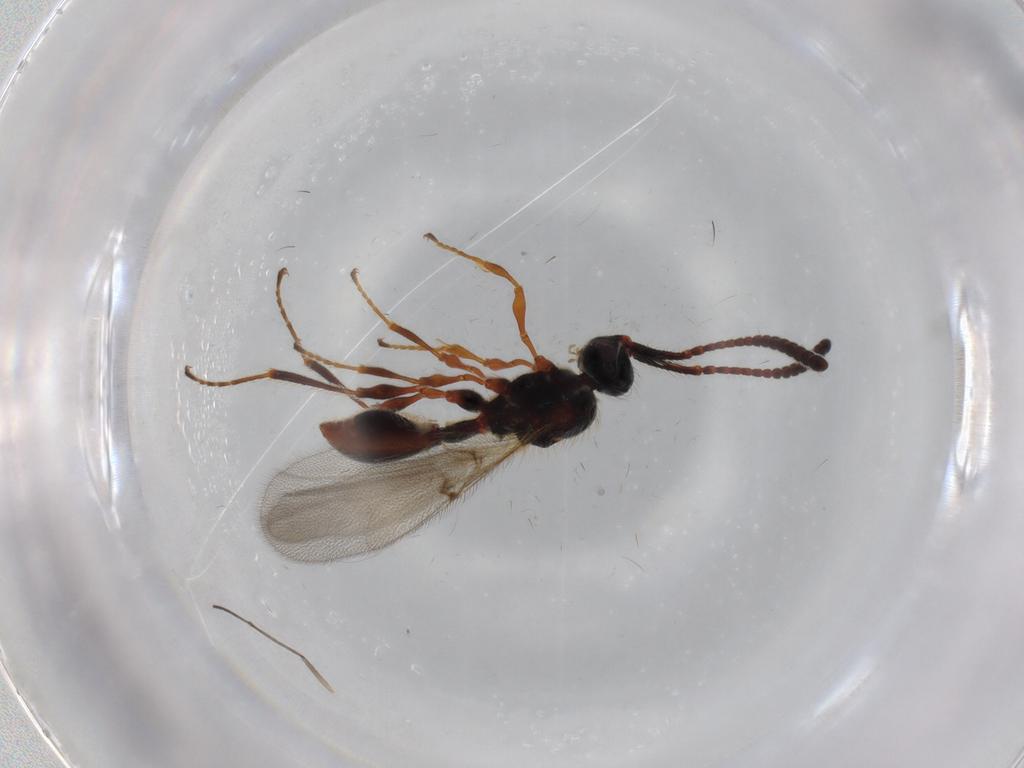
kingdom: Animalia
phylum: Arthropoda
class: Insecta
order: Hymenoptera
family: Diapriidae
